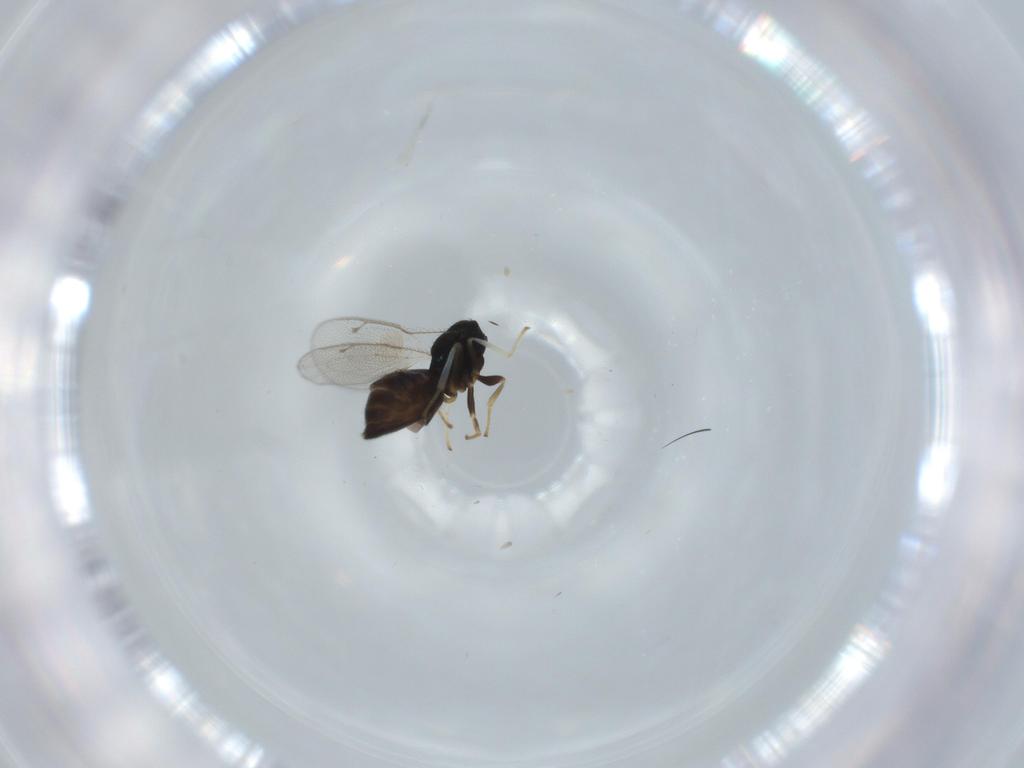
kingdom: Animalia
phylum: Arthropoda
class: Insecta
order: Hymenoptera
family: Pteromalidae
